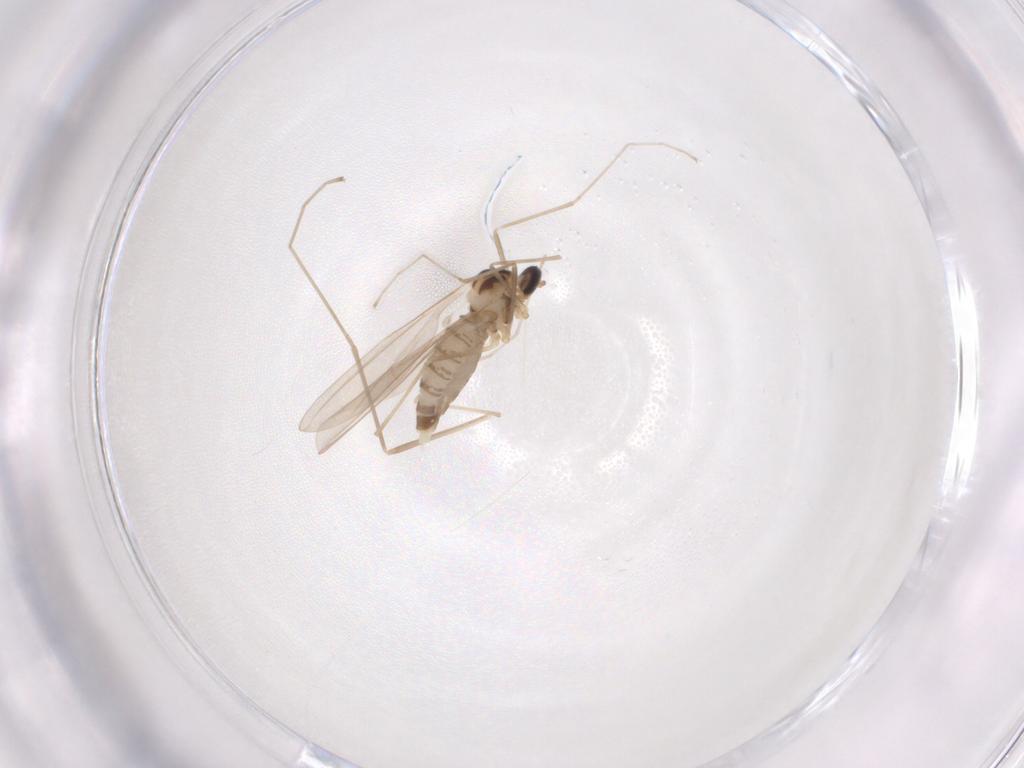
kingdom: Animalia
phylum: Arthropoda
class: Insecta
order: Diptera
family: Cecidomyiidae
